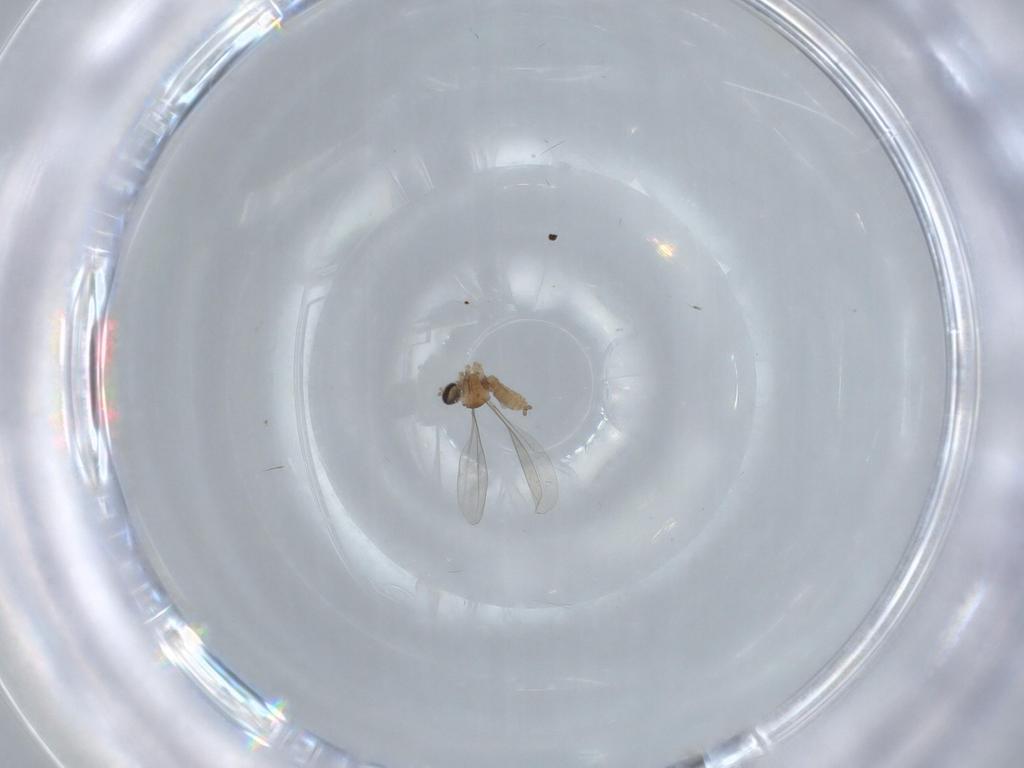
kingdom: Animalia
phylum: Arthropoda
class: Insecta
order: Diptera
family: Cecidomyiidae
